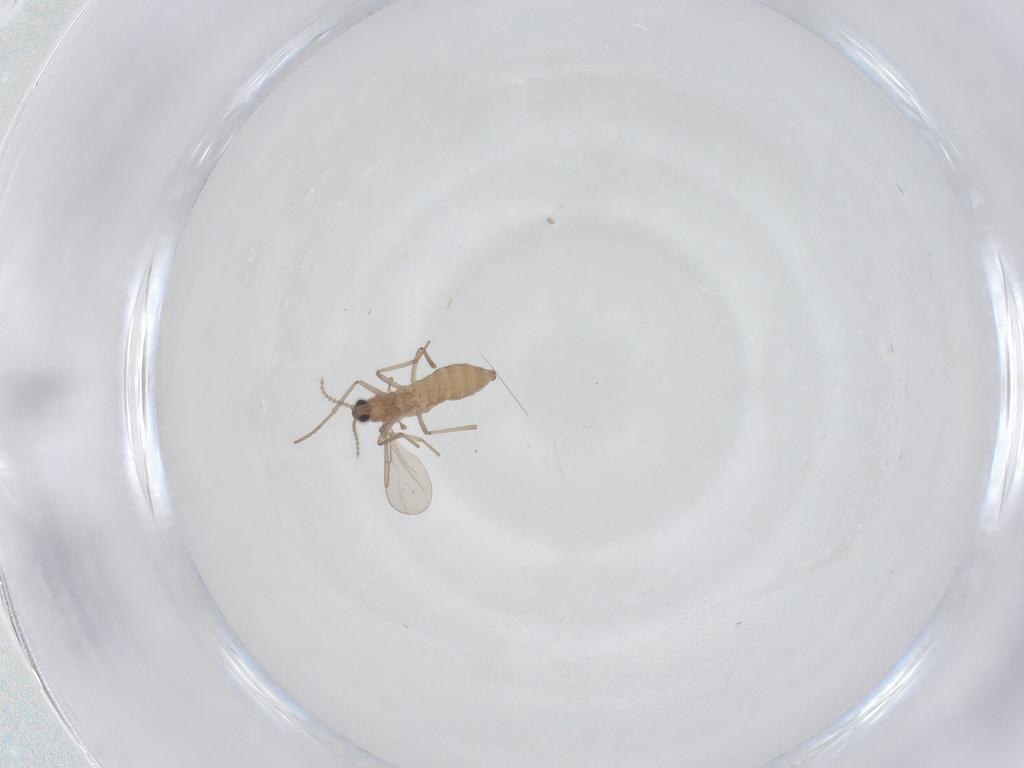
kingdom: Animalia
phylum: Arthropoda
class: Insecta
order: Diptera
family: Cecidomyiidae
